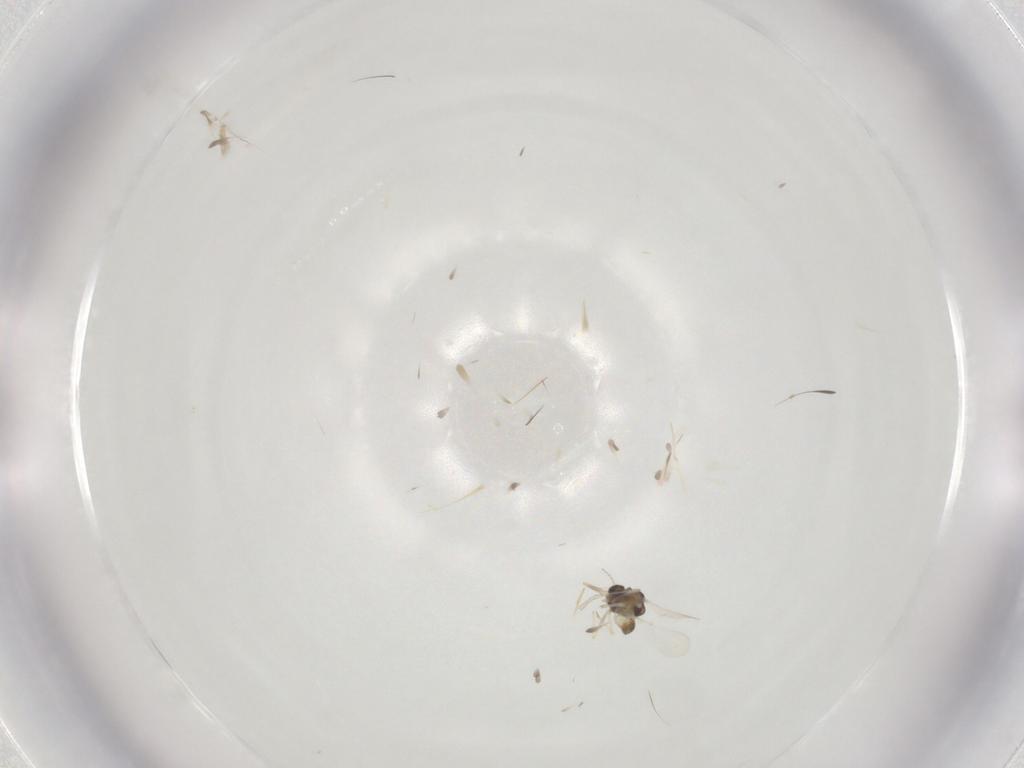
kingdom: Animalia
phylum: Arthropoda
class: Insecta
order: Diptera
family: Chironomidae
